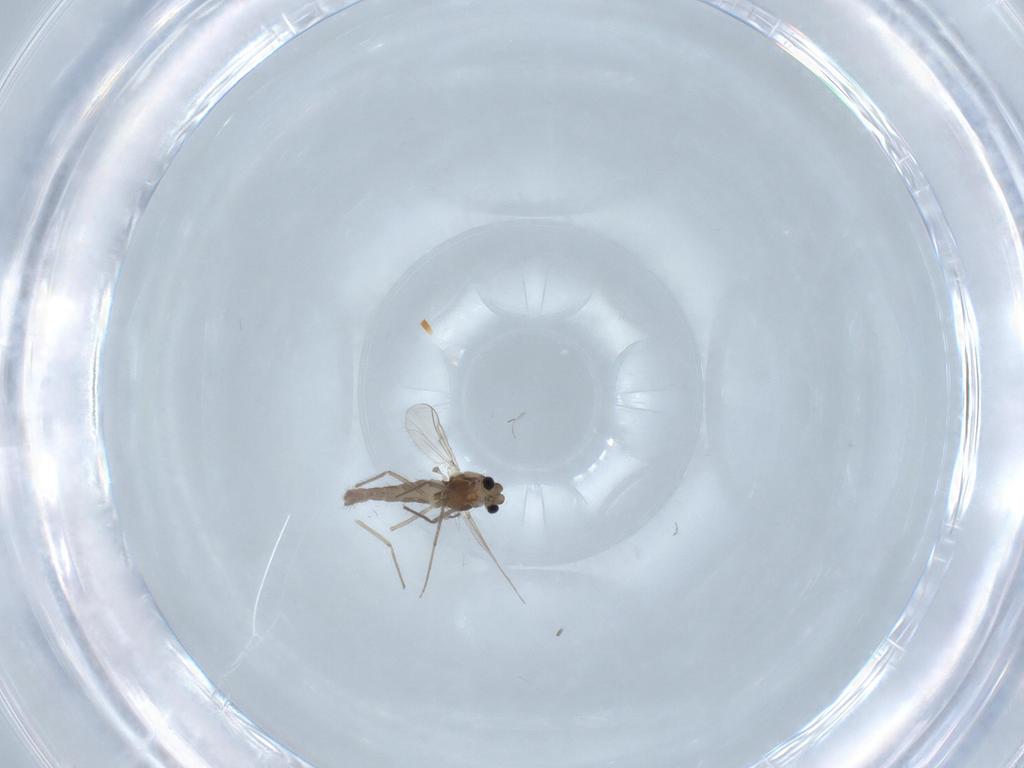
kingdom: Animalia
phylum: Arthropoda
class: Insecta
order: Diptera
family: Chironomidae
